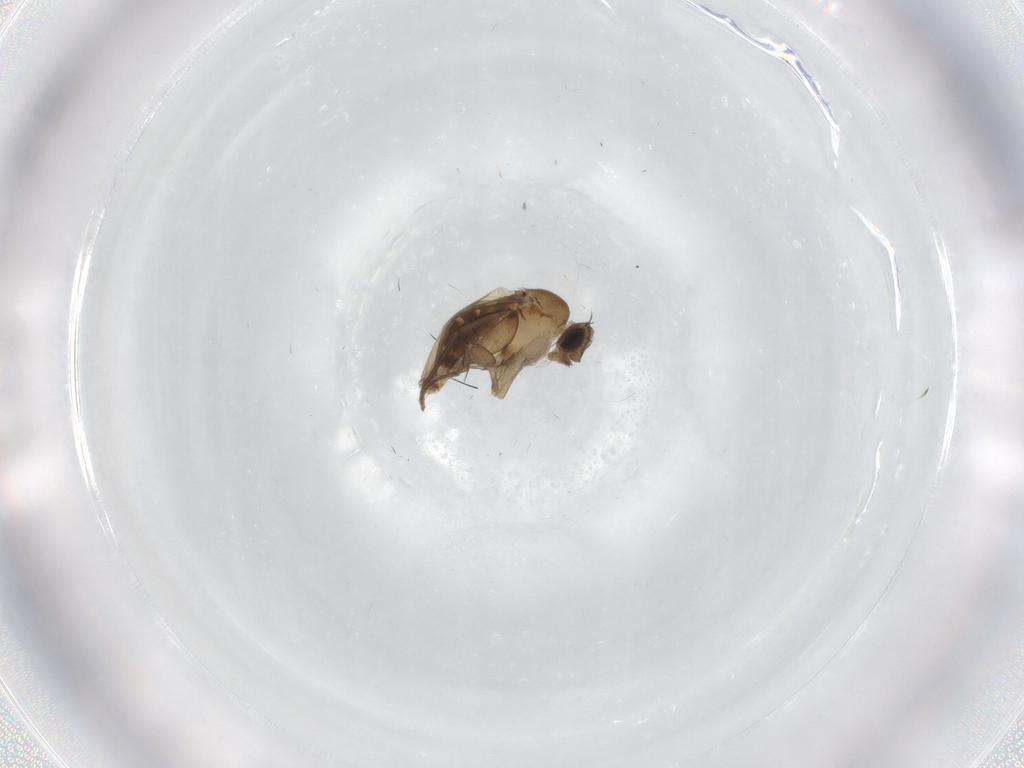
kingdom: Animalia
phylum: Arthropoda
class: Insecta
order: Diptera
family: Phoridae
